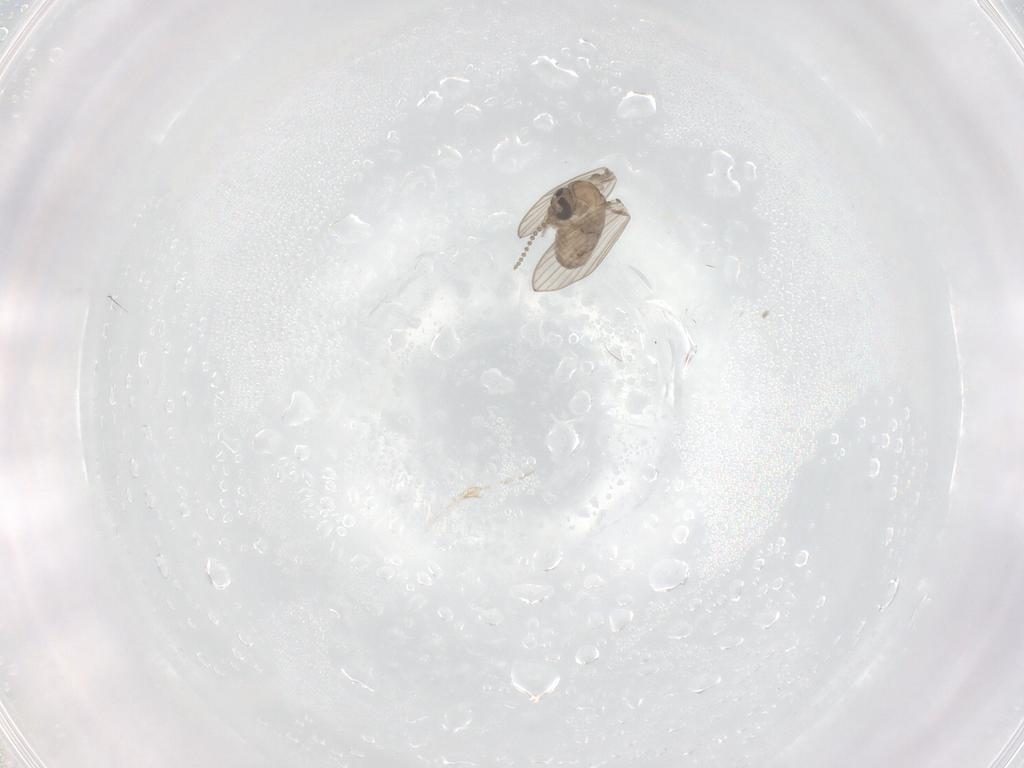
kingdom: Animalia
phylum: Arthropoda
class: Insecta
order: Diptera
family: Psychodidae
